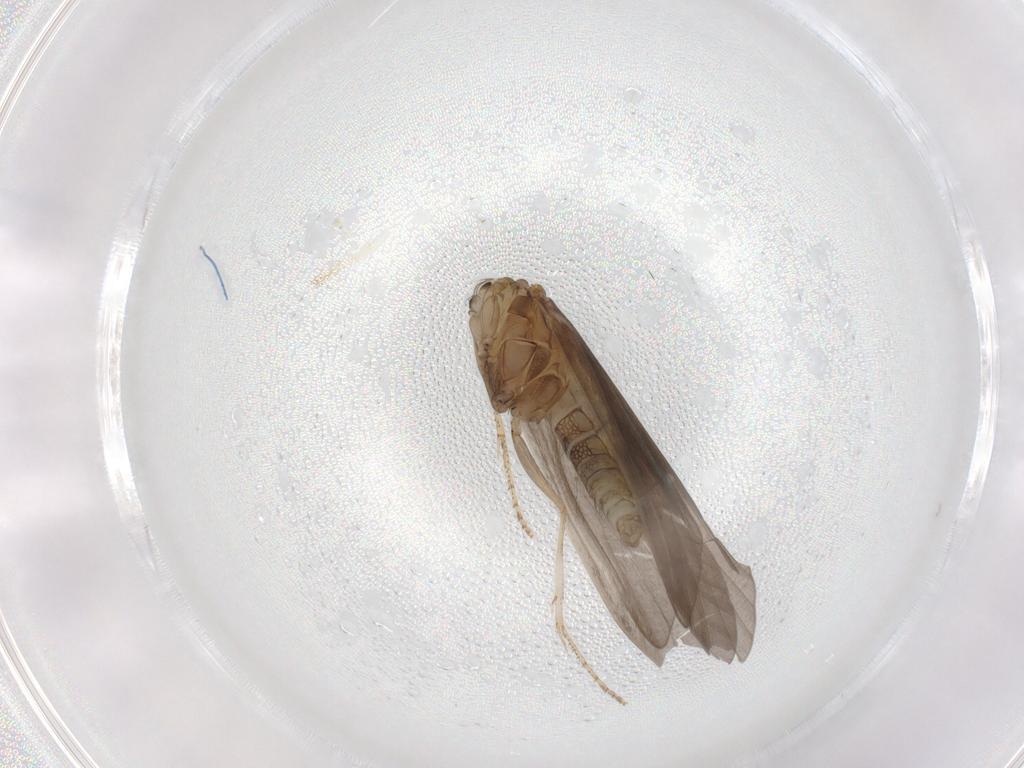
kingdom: Animalia
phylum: Arthropoda
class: Insecta
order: Trichoptera
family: Helicopsychidae
